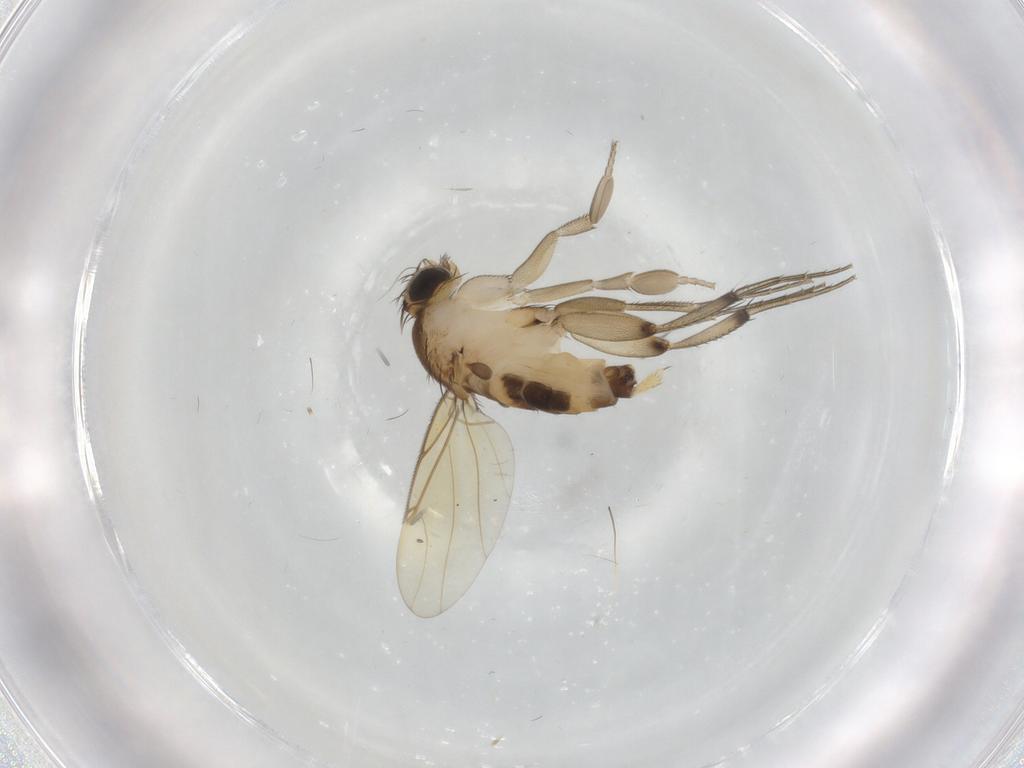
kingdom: Animalia
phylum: Arthropoda
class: Insecta
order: Diptera
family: Phoridae
